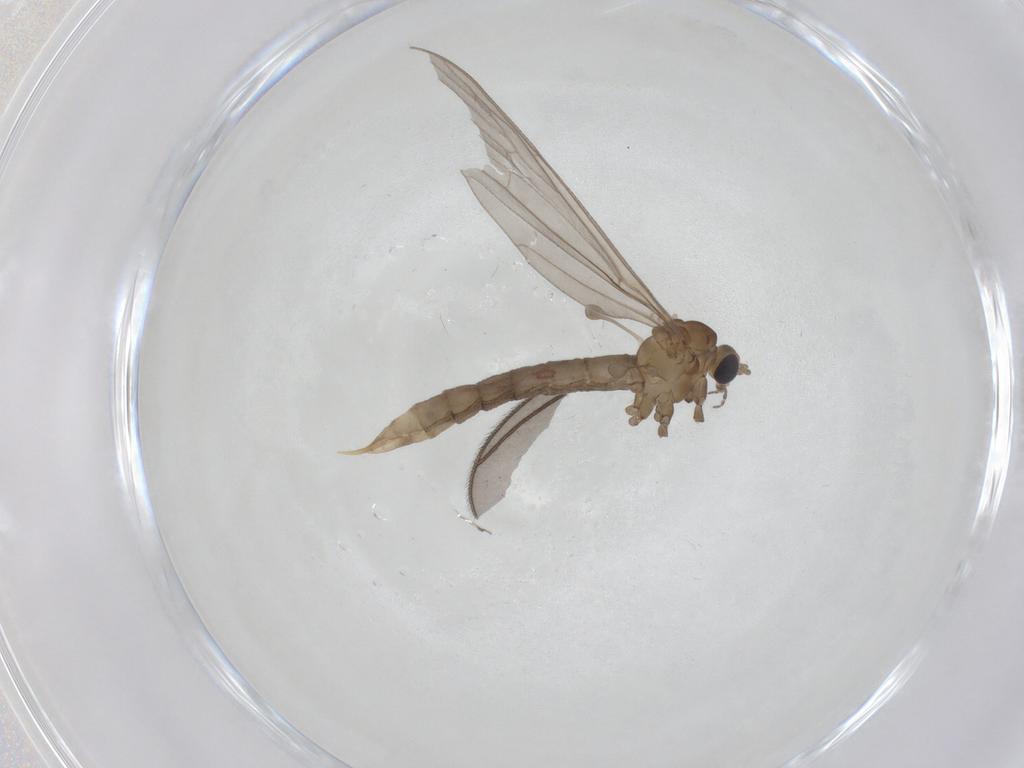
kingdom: Animalia
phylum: Arthropoda
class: Insecta
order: Diptera
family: Limoniidae
